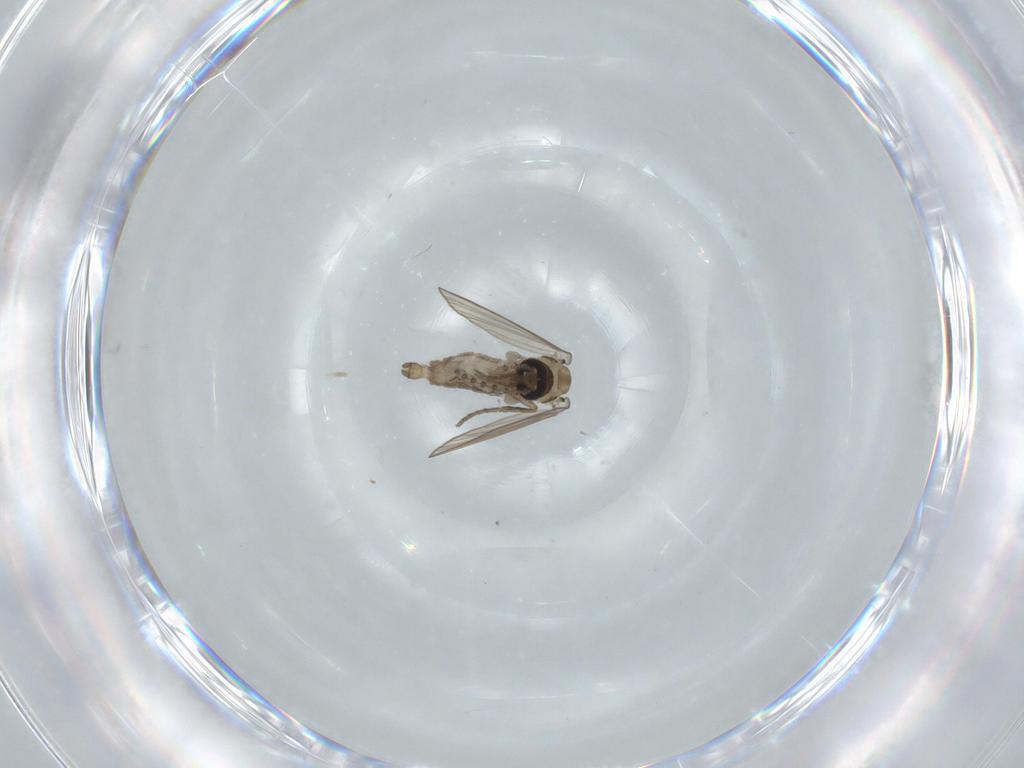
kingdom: Animalia
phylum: Arthropoda
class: Insecta
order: Diptera
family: Psychodidae
